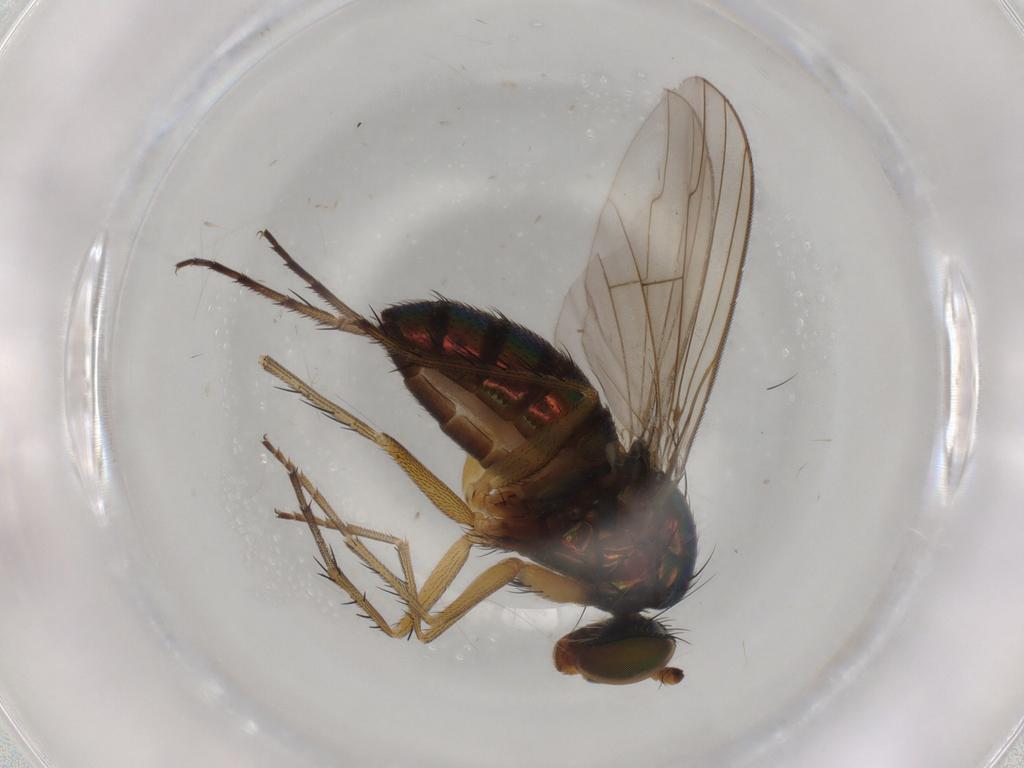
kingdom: Animalia
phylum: Arthropoda
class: Insecta
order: Diptera
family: Dolichopodidae
